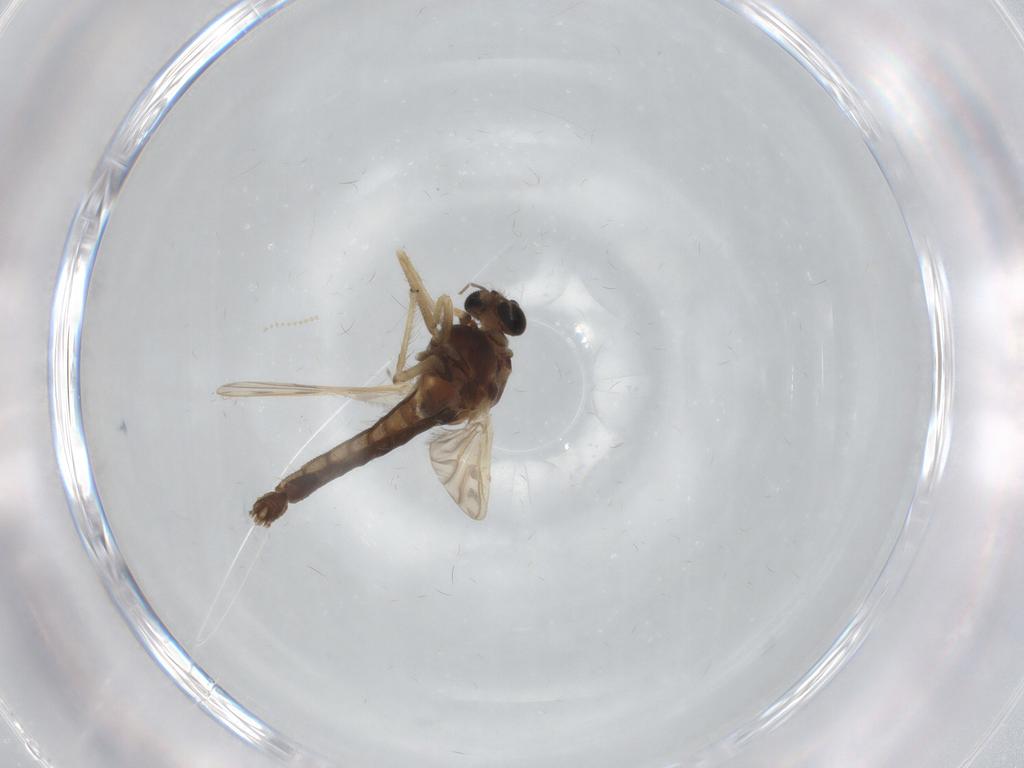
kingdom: Animalia
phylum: Arthropoda
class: Insecta
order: Diptera
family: Chironomidae
